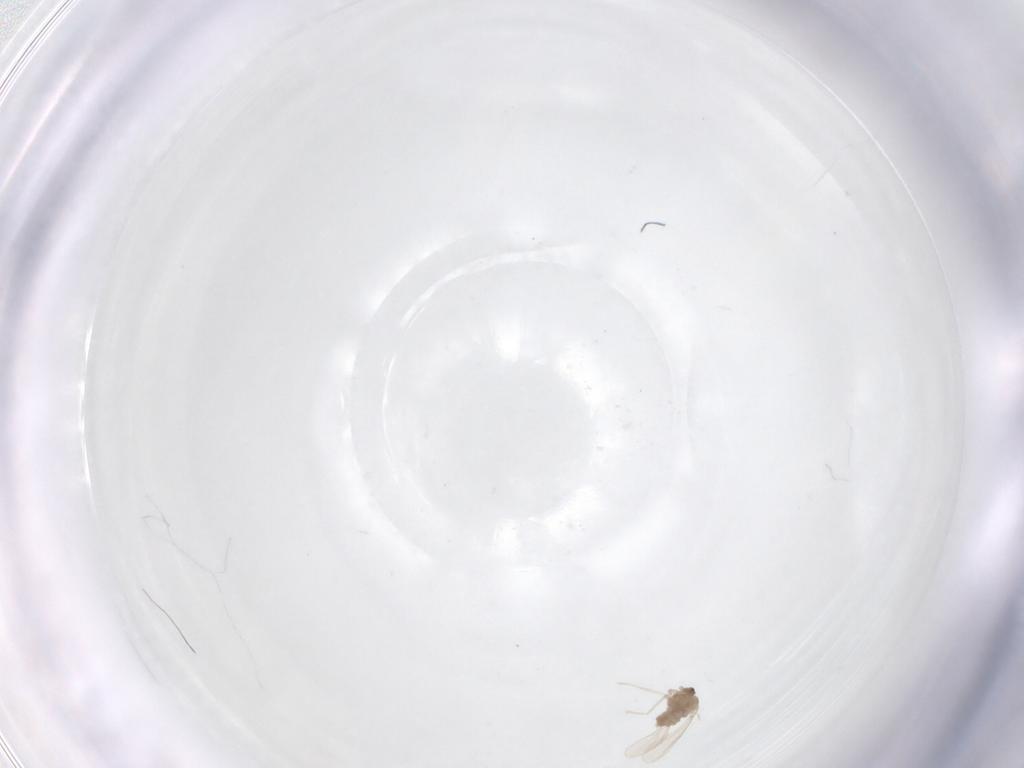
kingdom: Animalia
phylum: Arthropoda
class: Insecta
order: Diptera
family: Cecidomyiidae
